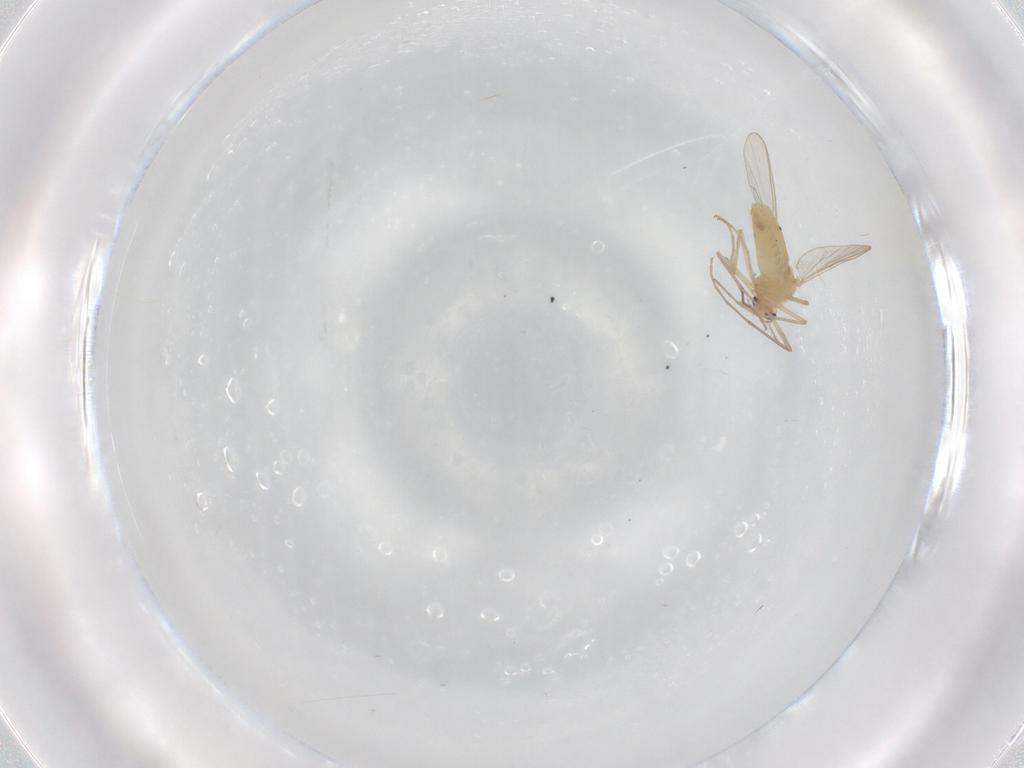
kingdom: Animalia
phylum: Arthropoda
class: Insecta
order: Diptera
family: Chironomidae
